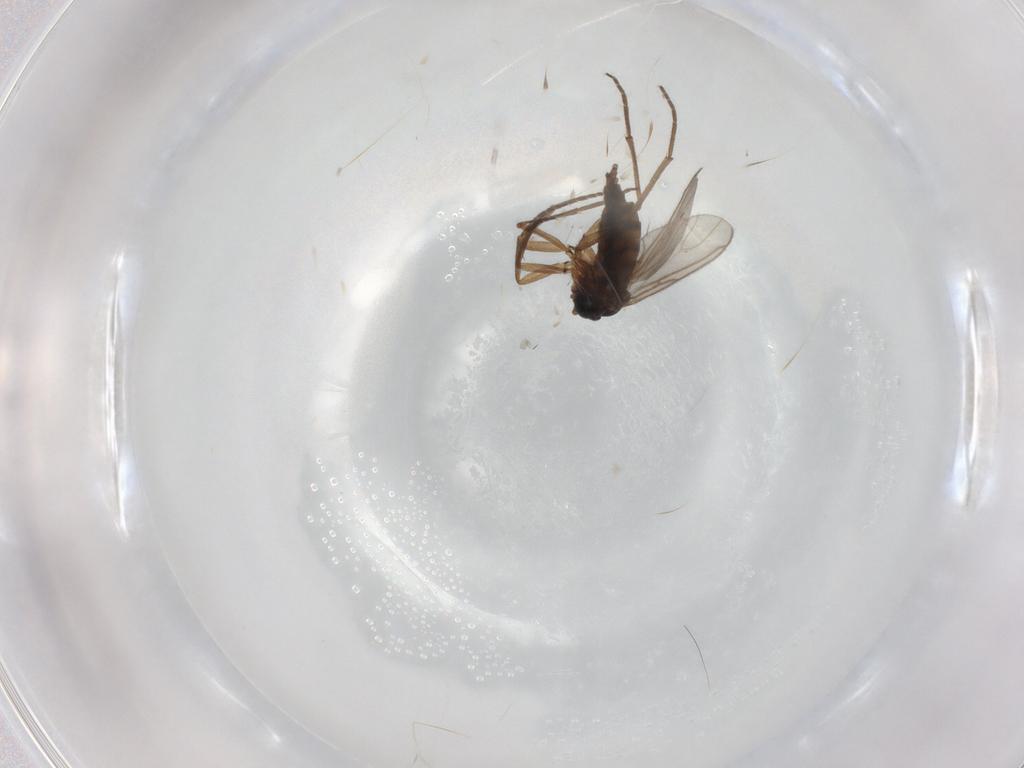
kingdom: Animalia
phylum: Arthropoda
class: Insecta
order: Diptera
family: Sciaridae
